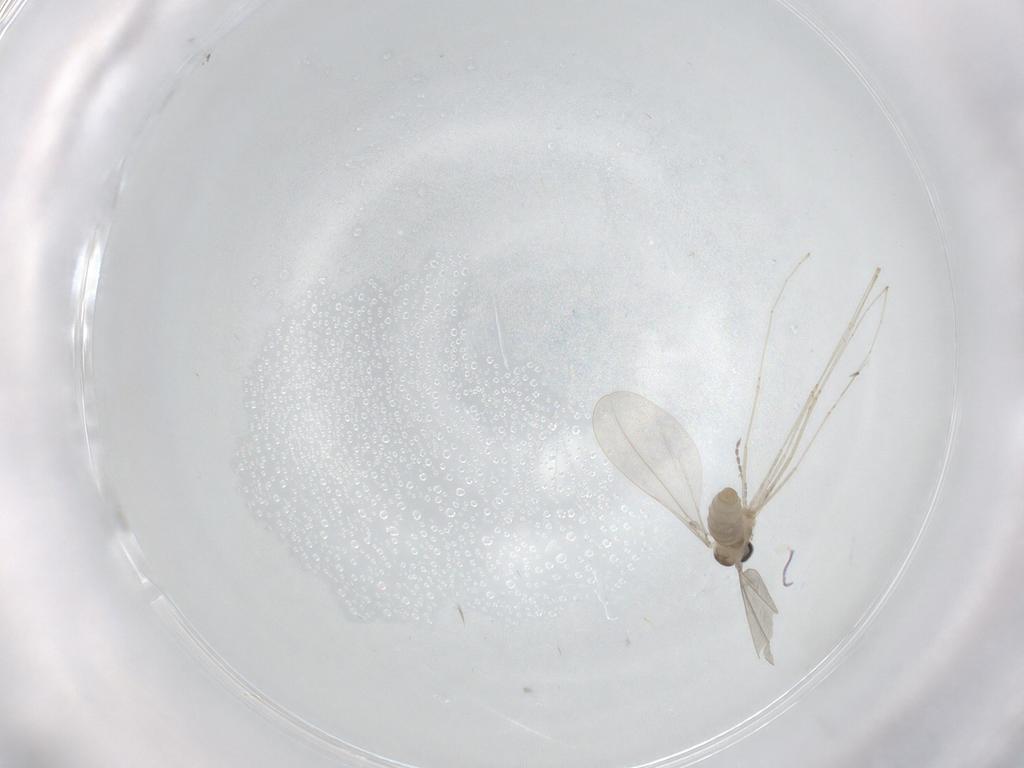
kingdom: Animalia
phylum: Arthropoda
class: Insecta
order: Diptera
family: Cecidomyiidae
